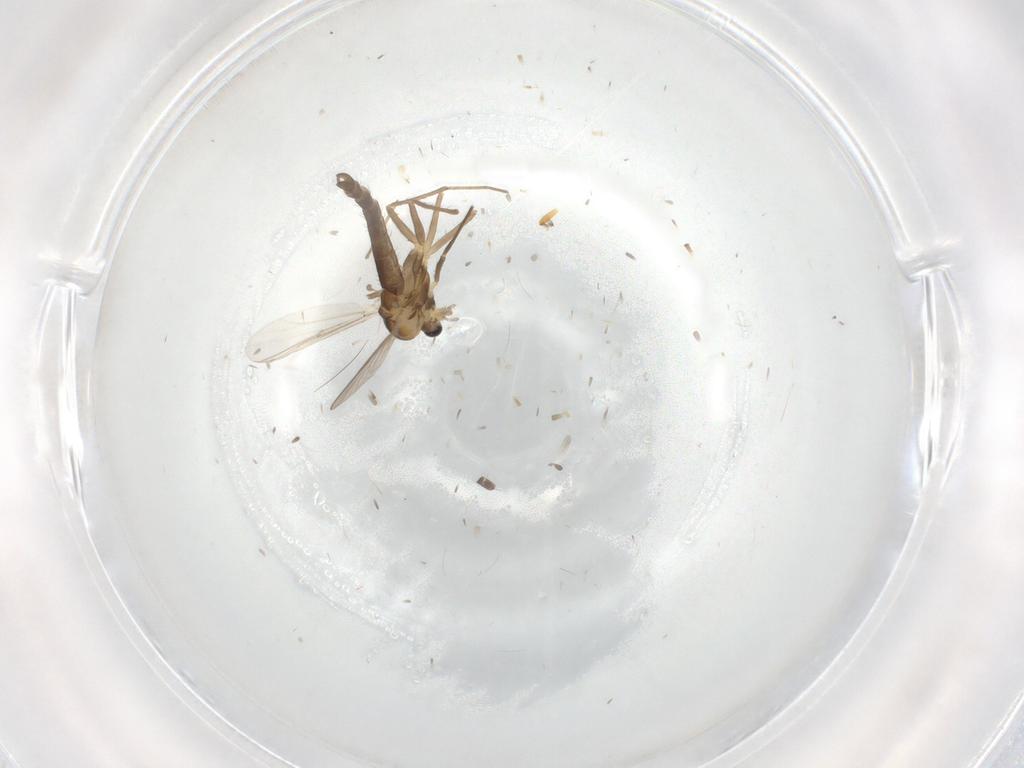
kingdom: Animalia
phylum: Arthropoda
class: Insecta
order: Diptera
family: Chironomidae
